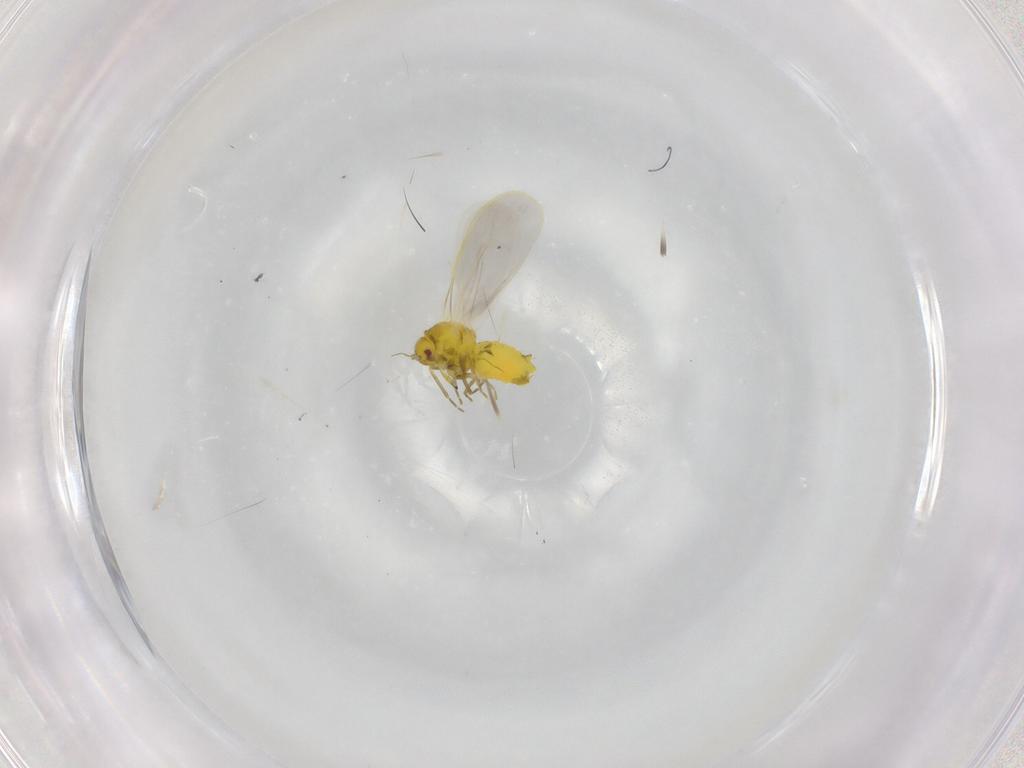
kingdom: Animalia
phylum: Arthropoda
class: Insecta
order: Hemiptera
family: Aleyrodidae
